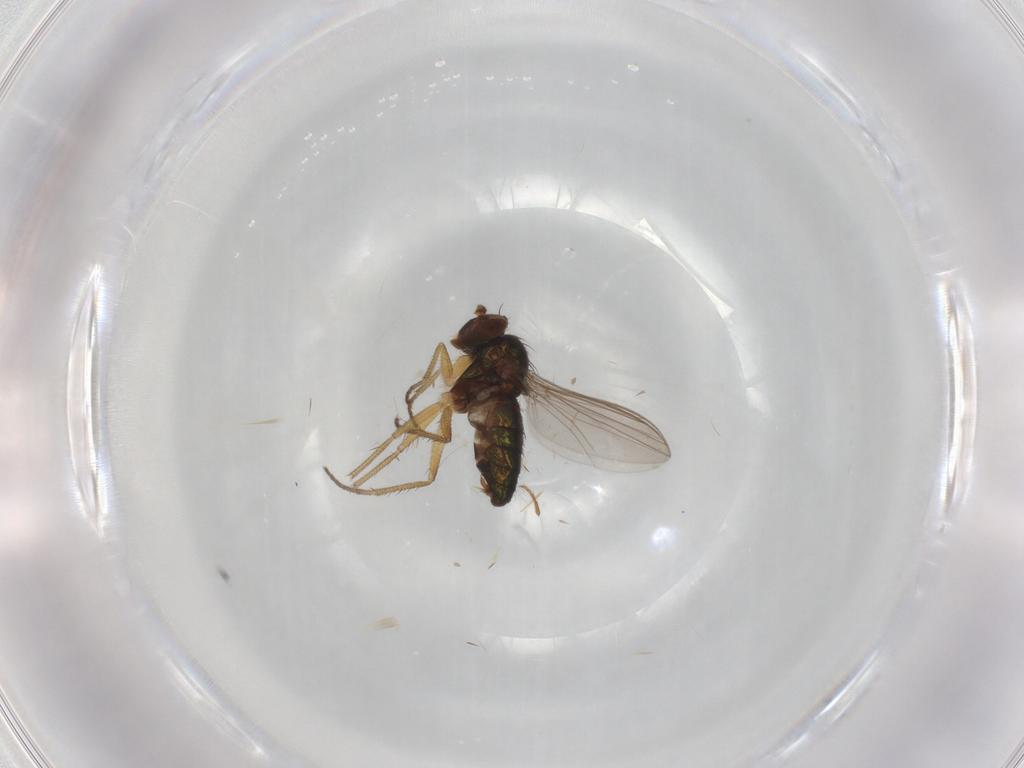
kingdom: Animalia
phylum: Arthropoda
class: Insecta
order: Diptera
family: Dolichopodidae
